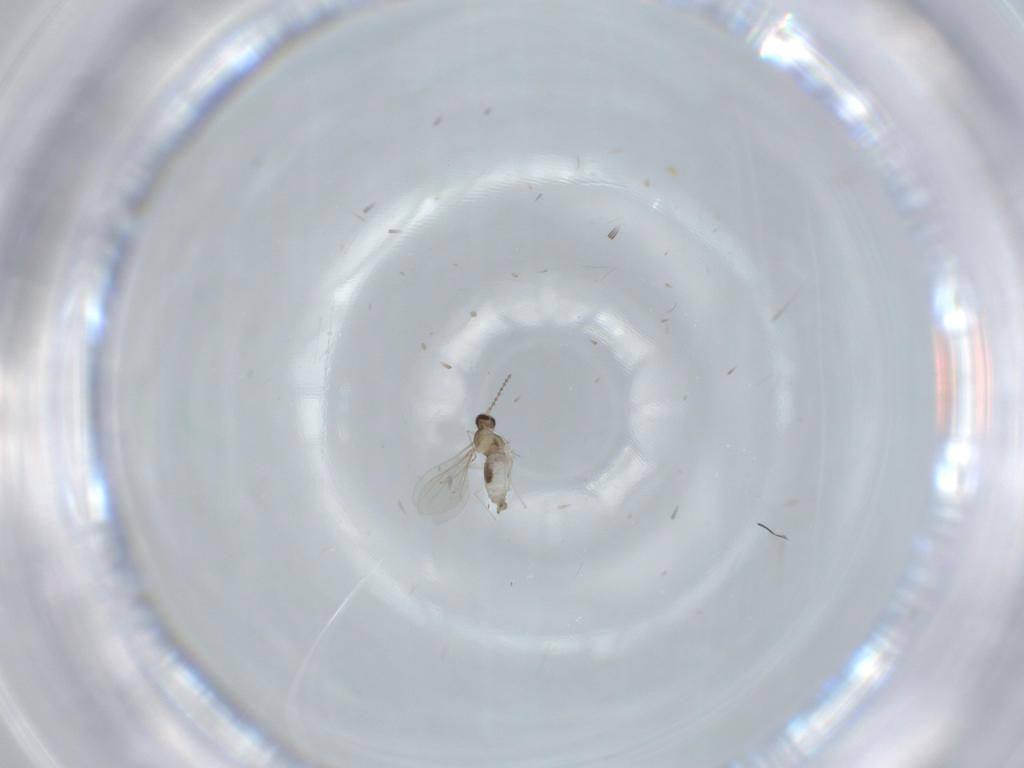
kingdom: Animalia
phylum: Arthropoda
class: Insecta
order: Diptera
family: Cecidomyiidae
